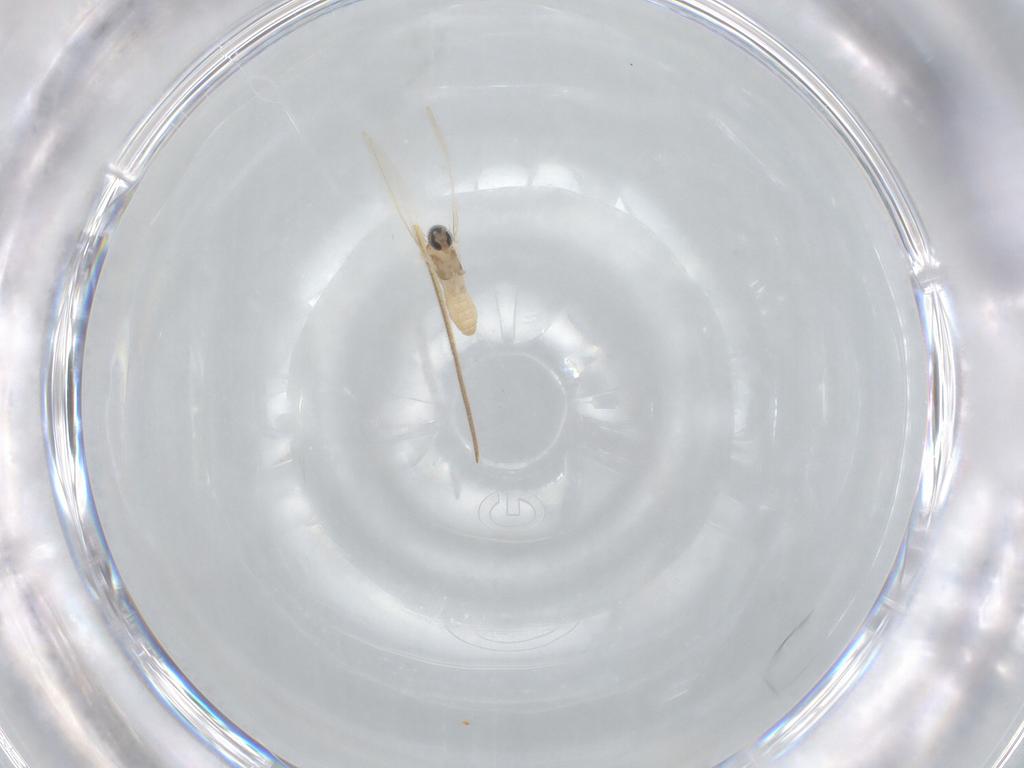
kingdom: Animalia
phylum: Arthropoda
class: Insecta
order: Diptera
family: Cecidomyiidae
